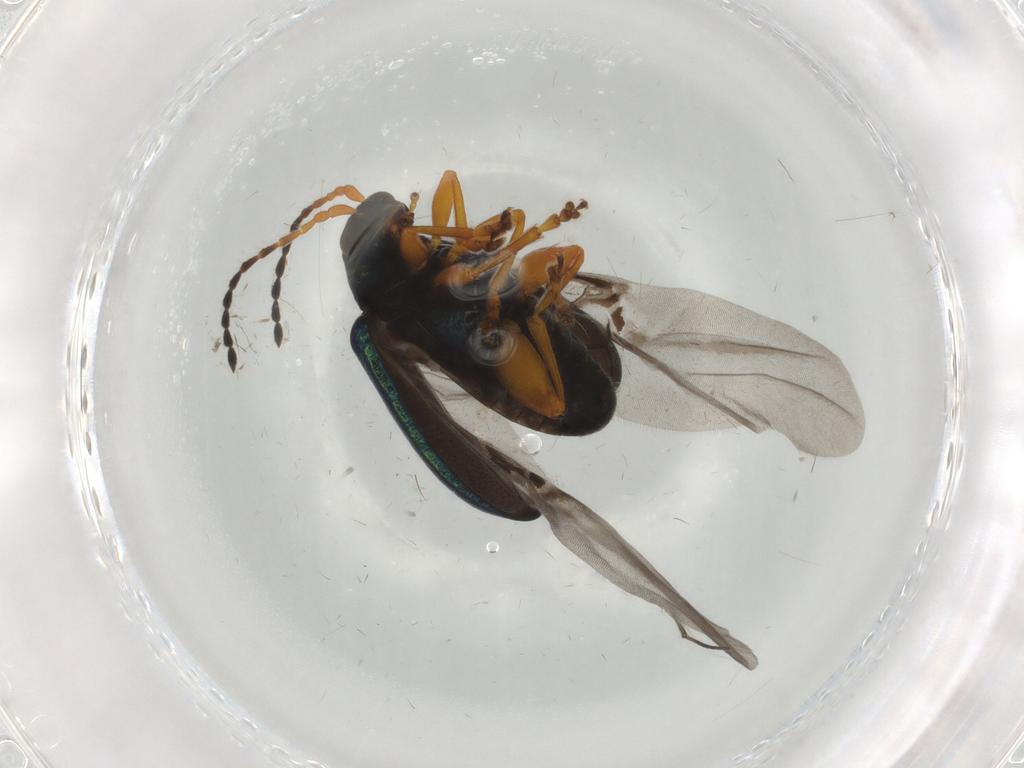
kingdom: Animalia
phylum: Arthropoda
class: Insecta
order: Coleoptera
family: Chrysomelidae
